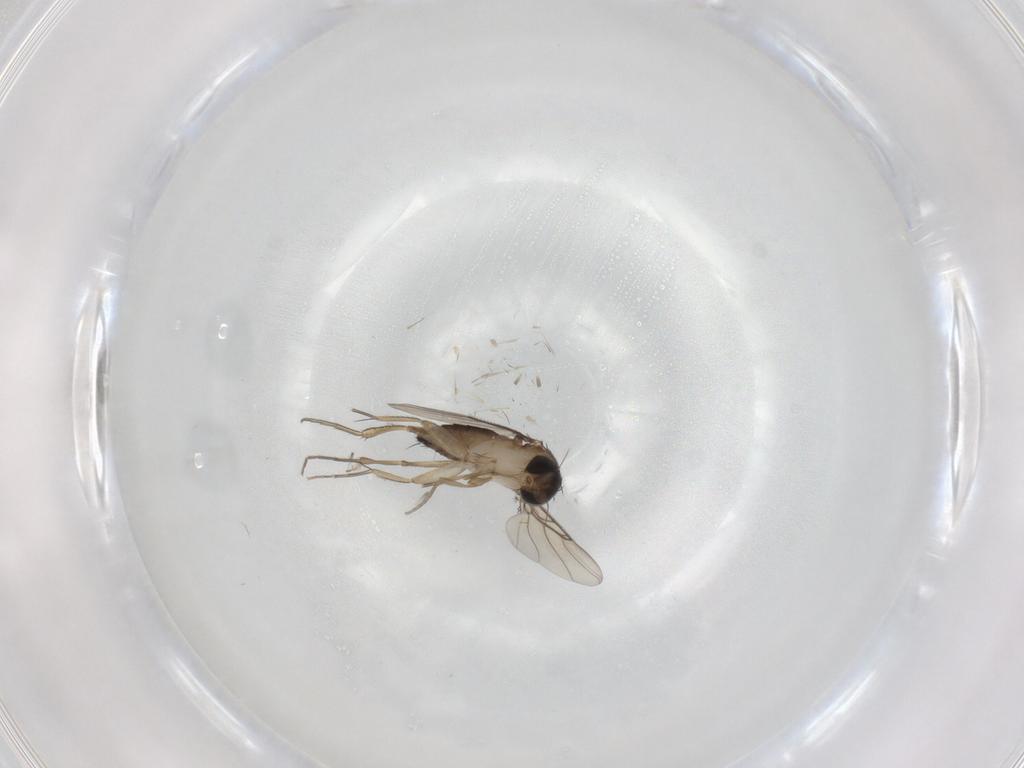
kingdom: Animalia
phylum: Arthropoda
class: Insecta
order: Diptera
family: Phoridae
